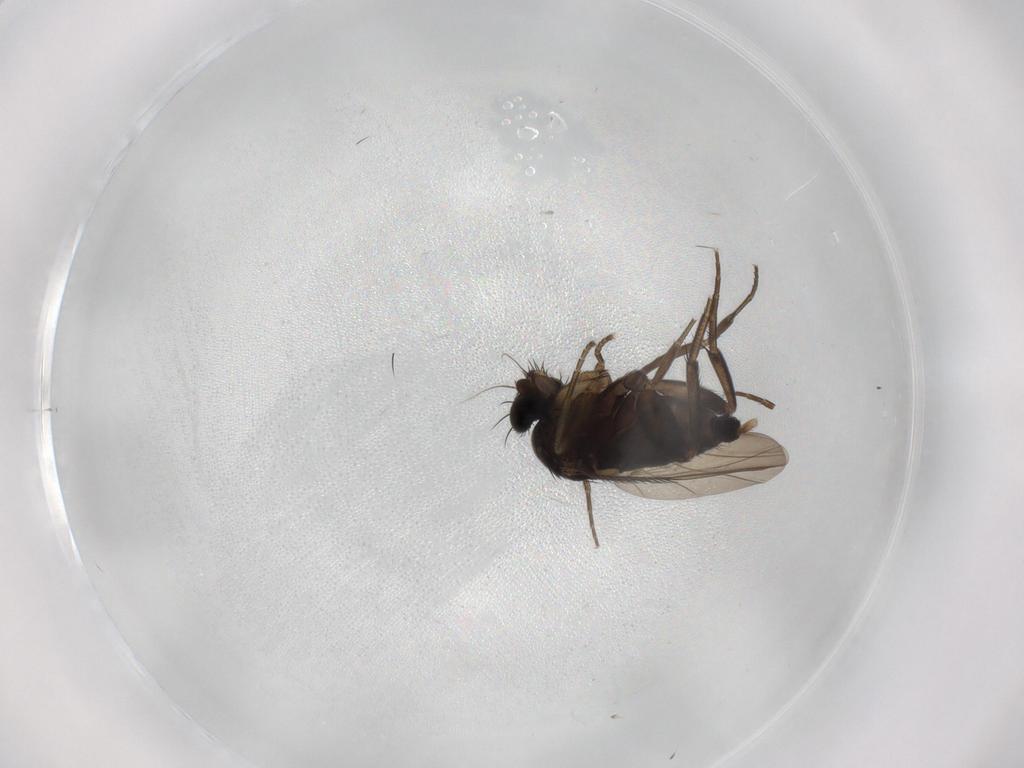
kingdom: Animalia
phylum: Arthropoda
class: Insecta
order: Diptera
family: Phoridae
